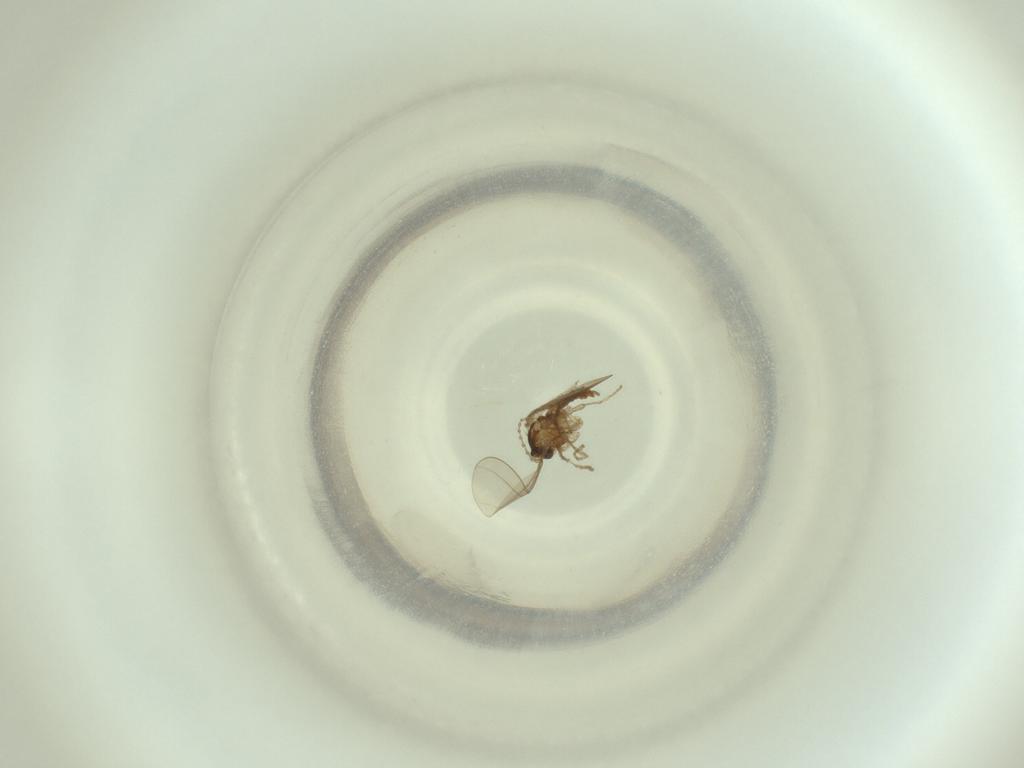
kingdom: Animalia
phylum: Arthropoda
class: Insecta
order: Diptera
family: Cecidomyiidae
